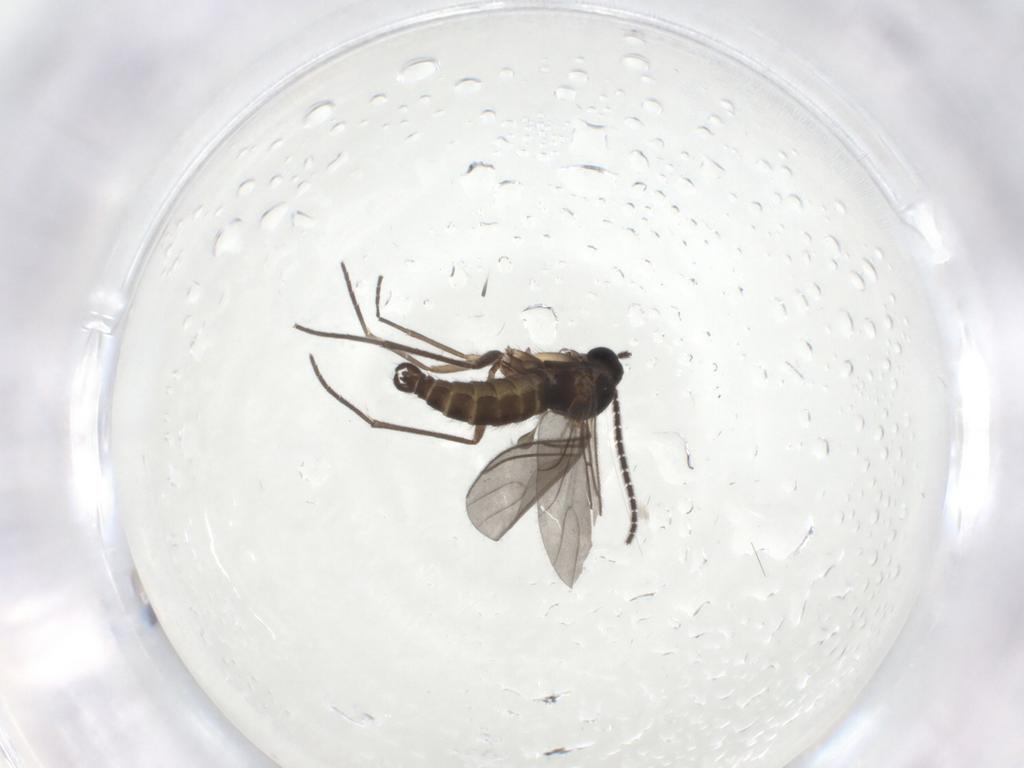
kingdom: Animalia
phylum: Arthropoda
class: Insecta
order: Diptera
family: Sciaridae
